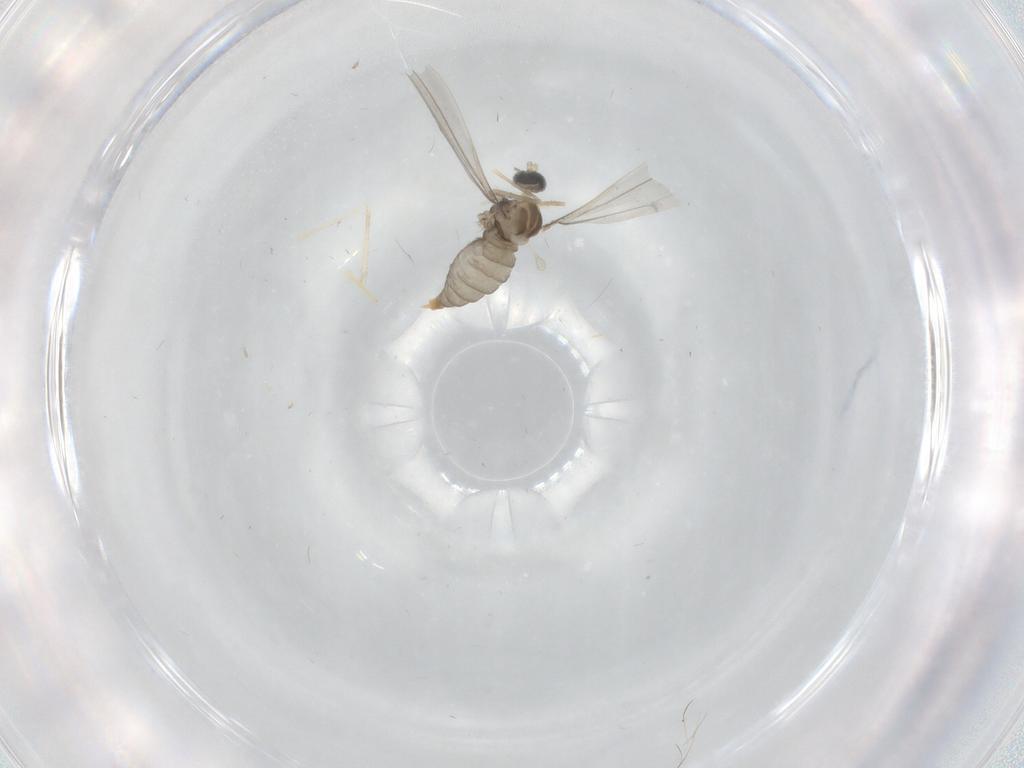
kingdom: Animalia
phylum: Arthropoda
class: Insecta
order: Diptera
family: Cecidomyiidae
